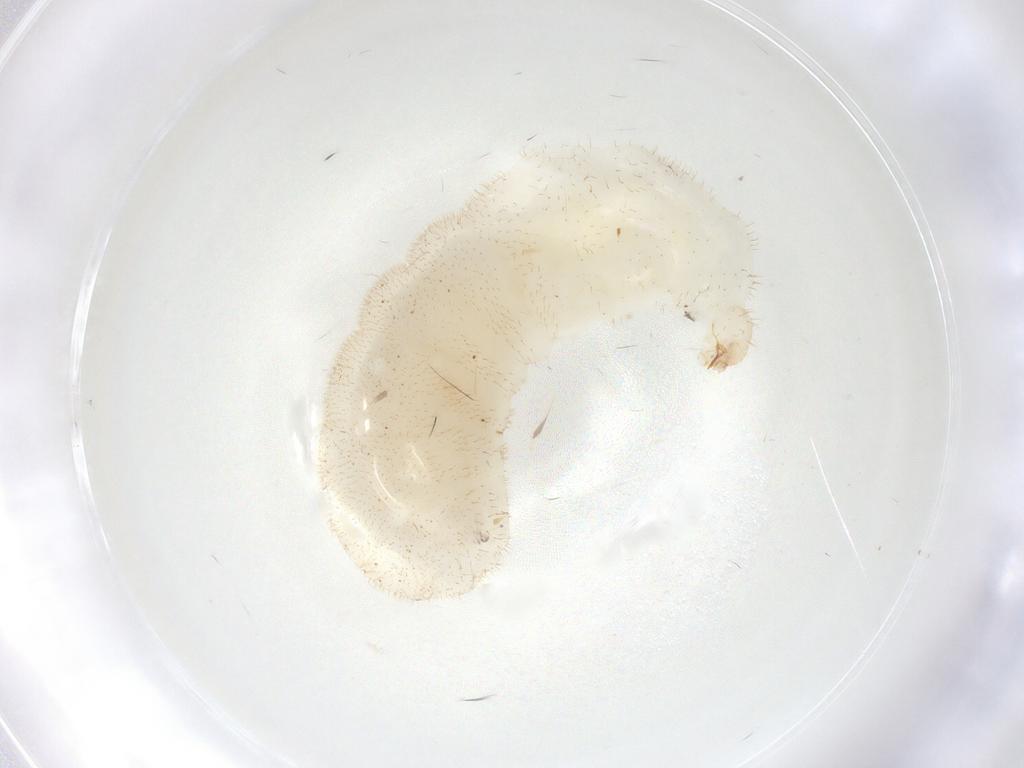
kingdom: Animalia
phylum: Arthropoda
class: Insecta
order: Hymenoptera
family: Formicidae
